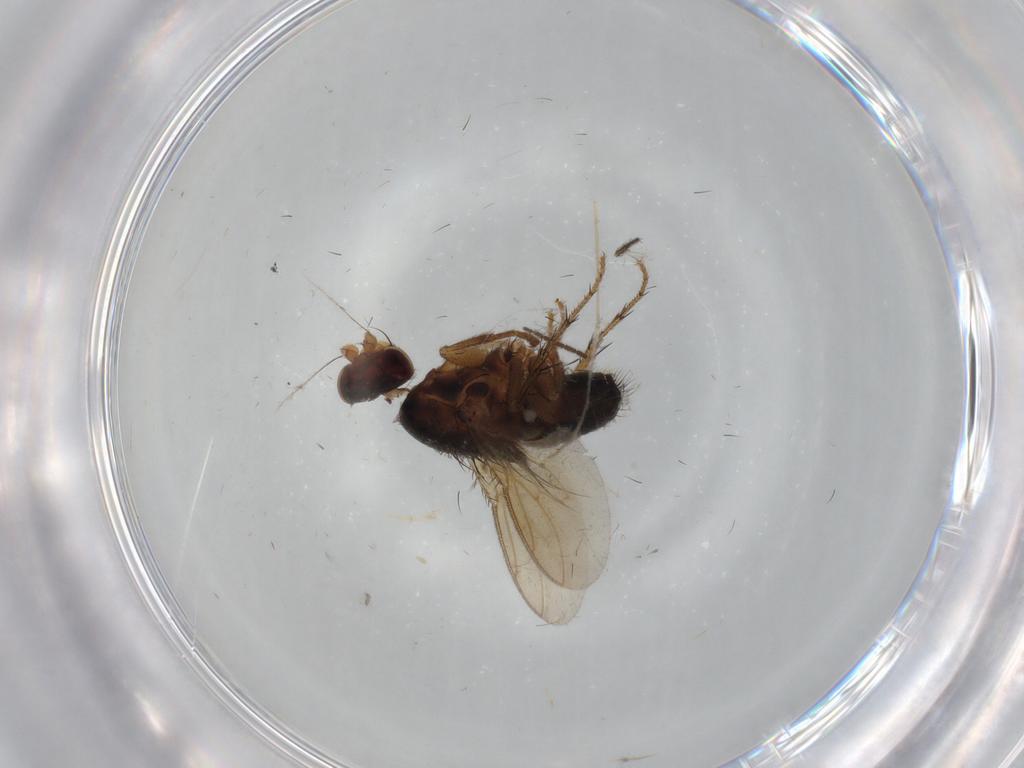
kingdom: Animalia
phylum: Arthropoda
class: Insecta
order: Diptera
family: Sphaeroceridae
